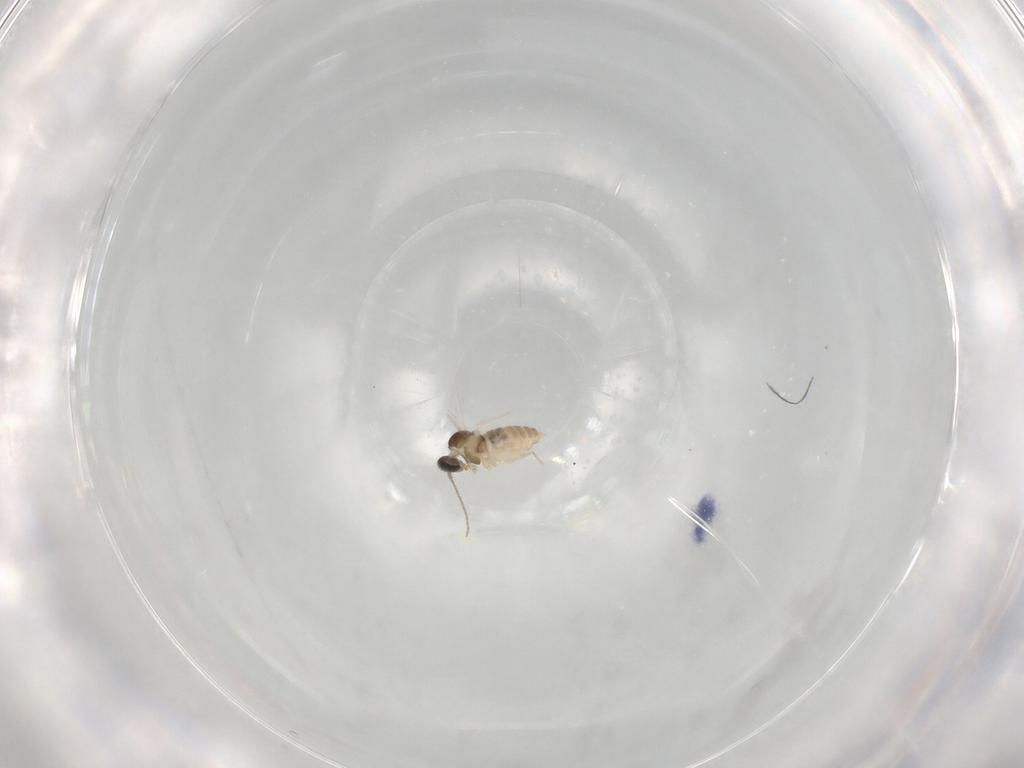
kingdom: Animalia
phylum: Arthropoda
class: Insecta
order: Diptera
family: Cecidomyiidae
